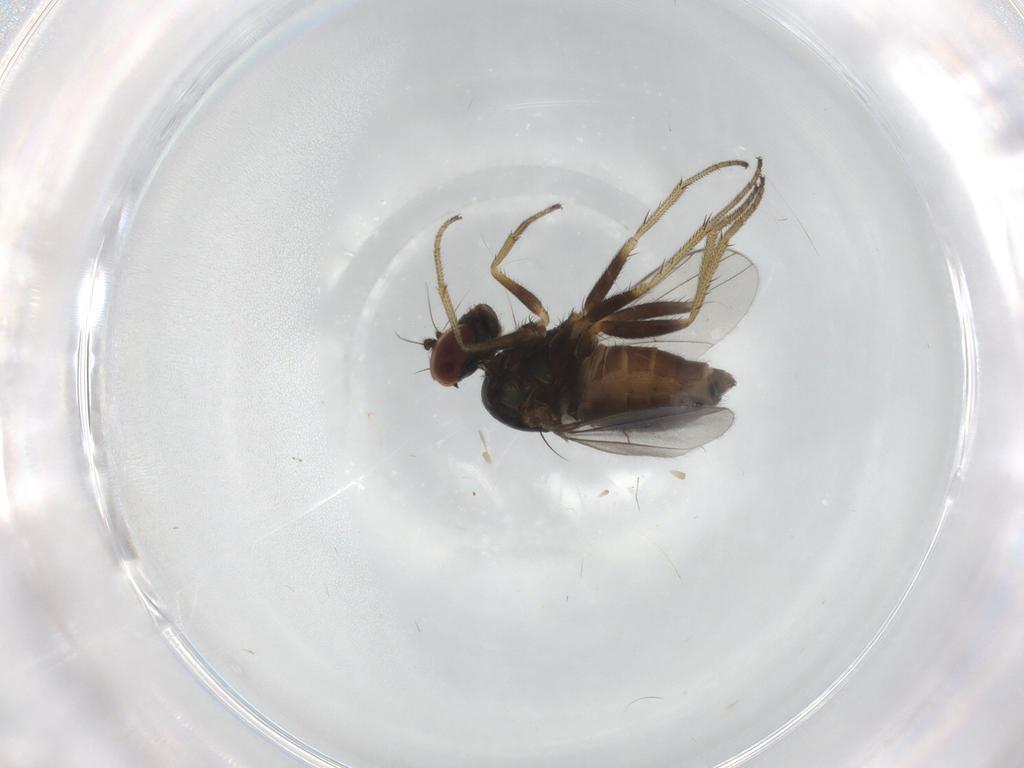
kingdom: Animalia
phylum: Arthropoda
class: Insecta
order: Diptera
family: Dolichopodidae
